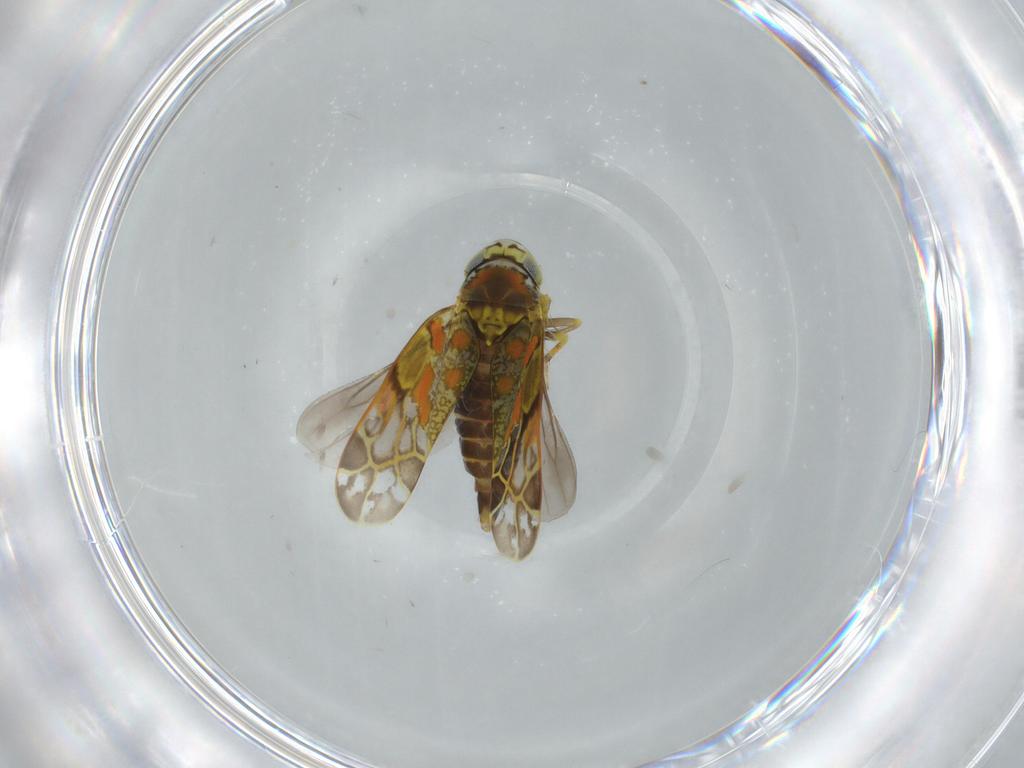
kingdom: Animalia
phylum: Arthropoda
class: Insecta
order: Hemiptera
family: Cicadellidae
